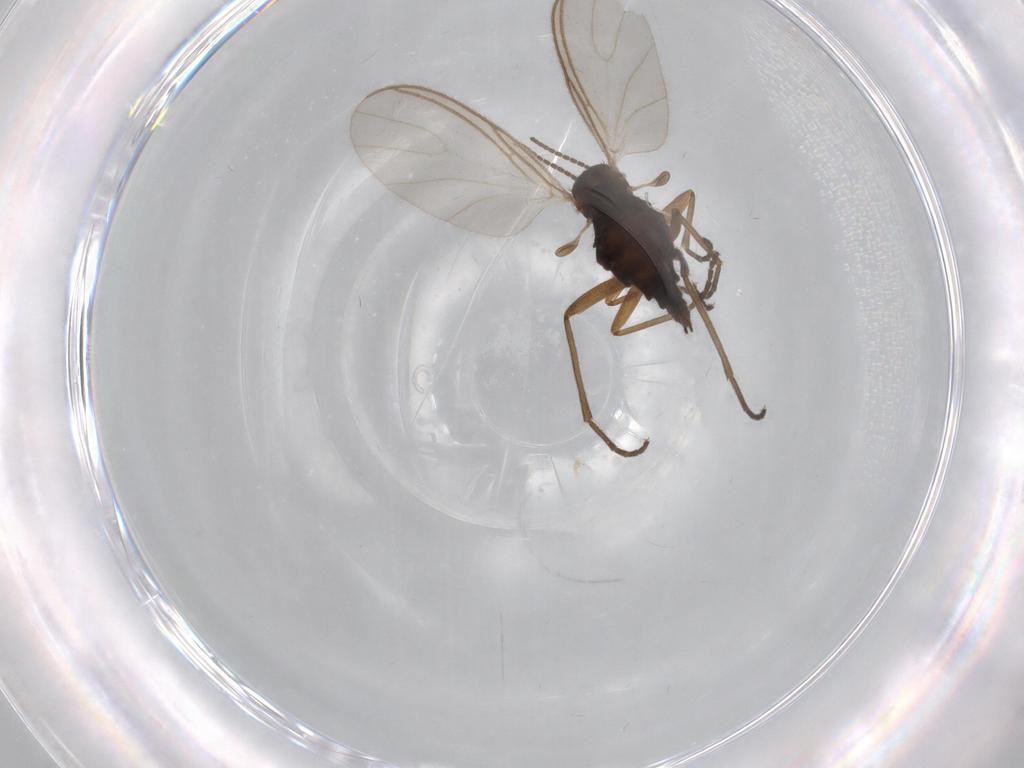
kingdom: Animalia
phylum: Arthropoda
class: Insecta
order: Diptera
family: Sciaridae
